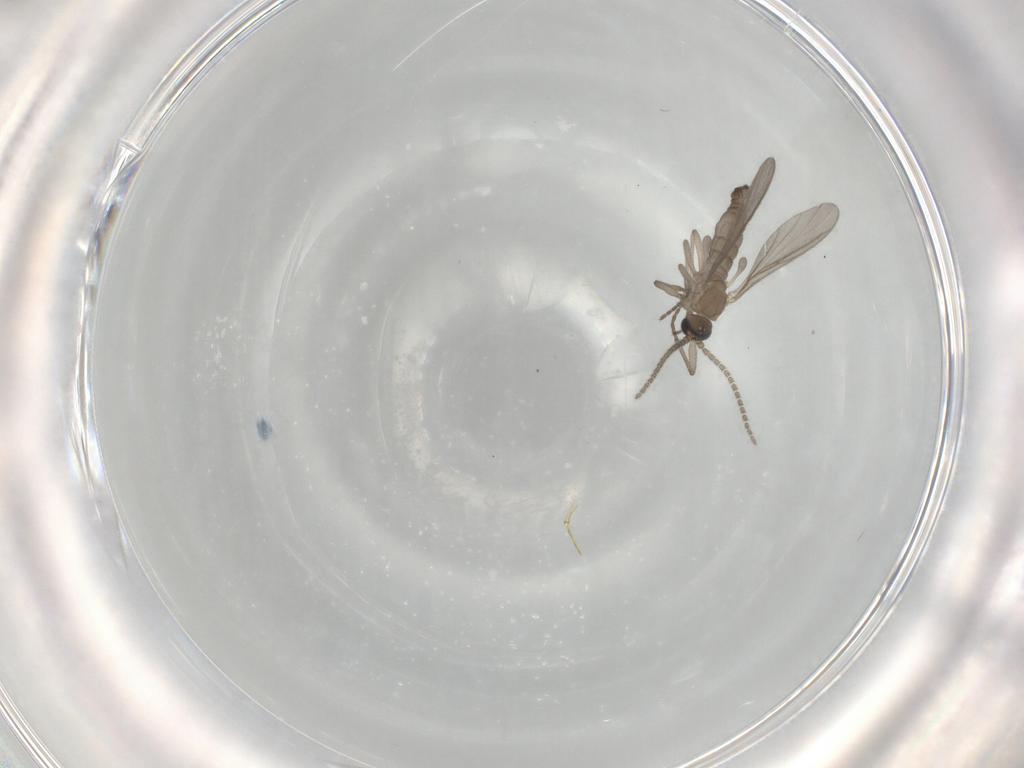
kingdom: Animalia
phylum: Arthropoda
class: Insecta
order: Diptera
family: Sciaridae
